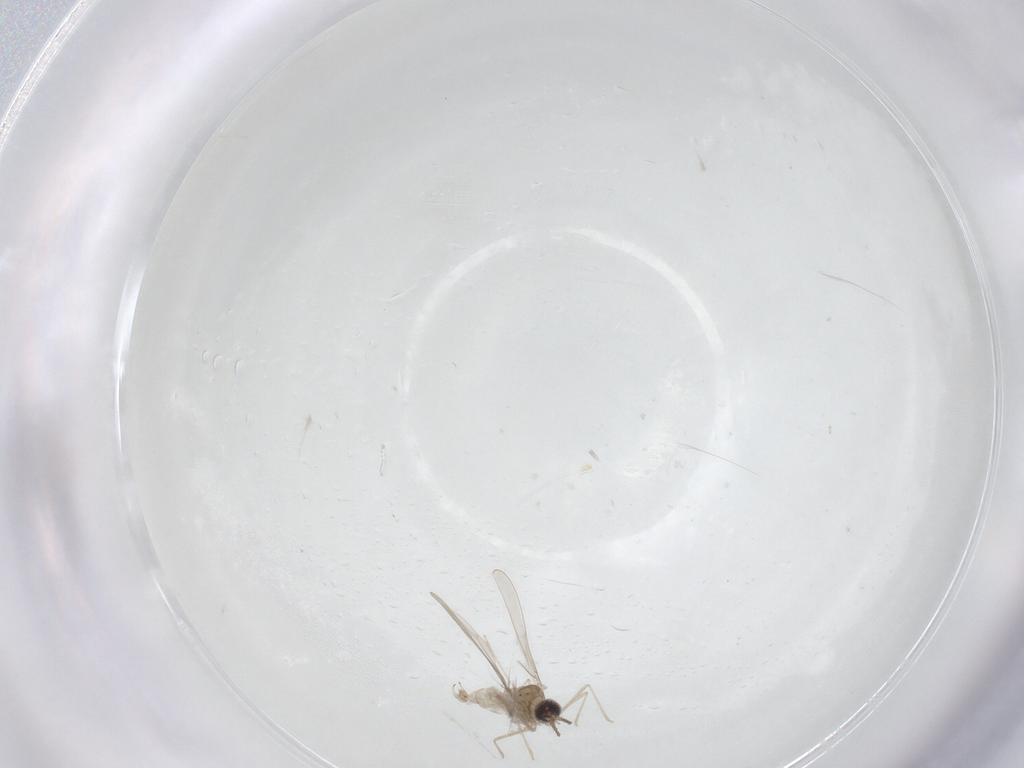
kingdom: Animalia
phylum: Arthropoda
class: Insecta
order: Diptera
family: Cecidomyiidae
